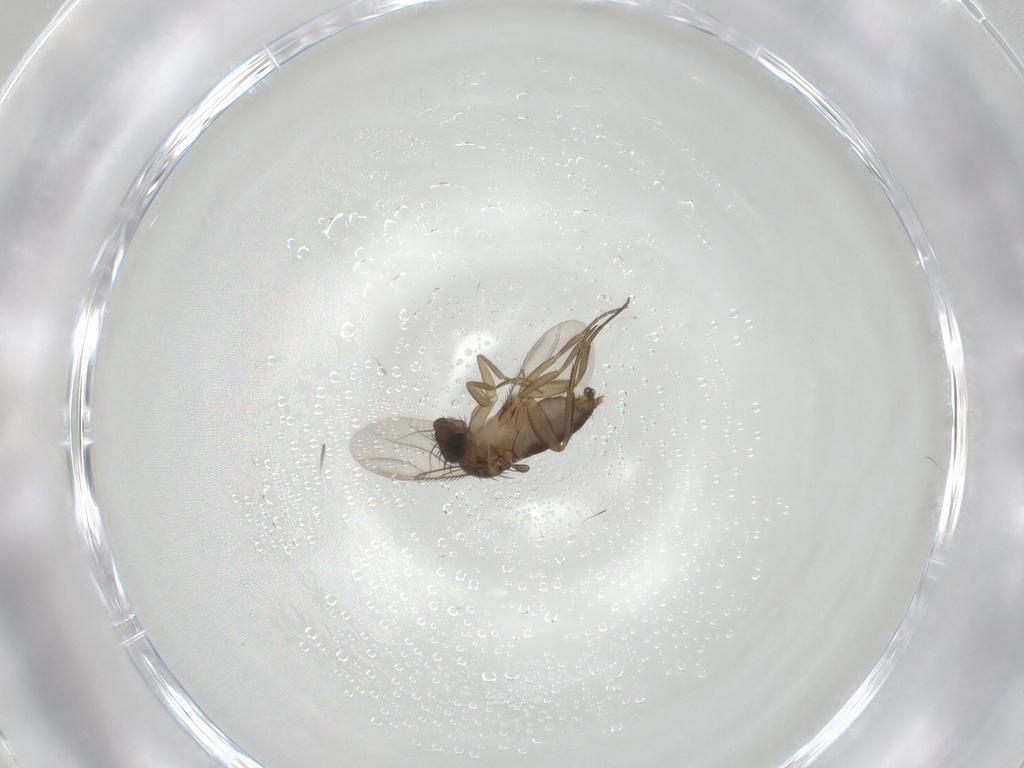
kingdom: Animalia
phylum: Arthropoda
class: Insecta
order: Diptera
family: Phoridae
